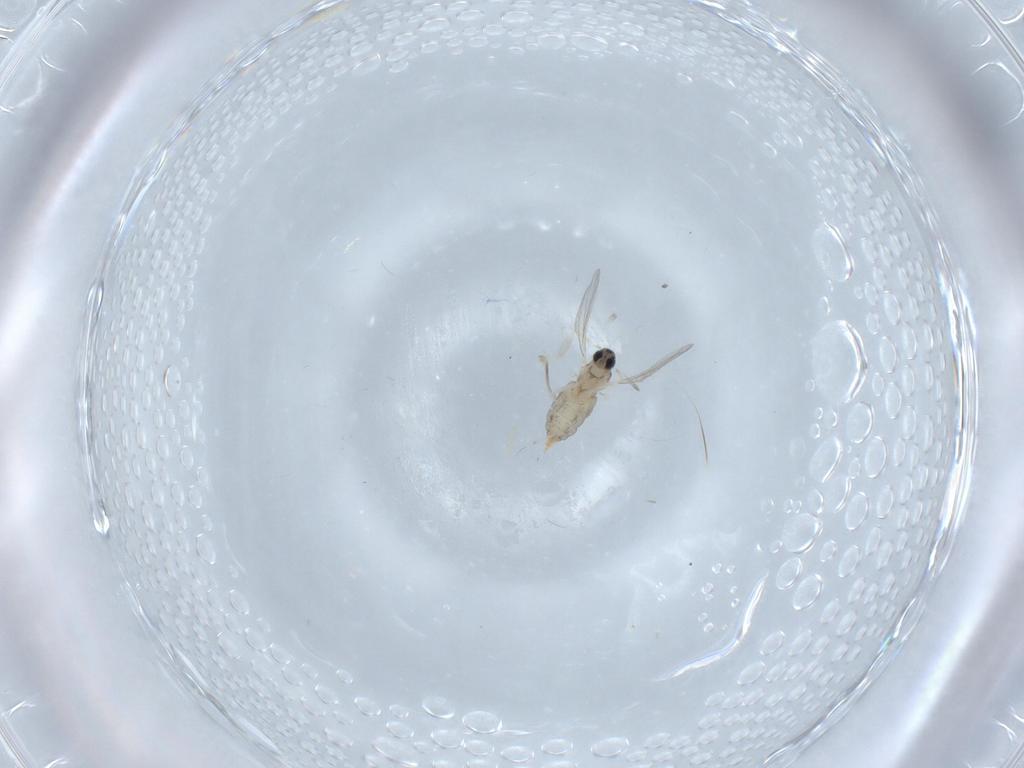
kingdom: Animalia
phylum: Arthropoda
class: Insecta
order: Diptera
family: Cecidomyiidae
